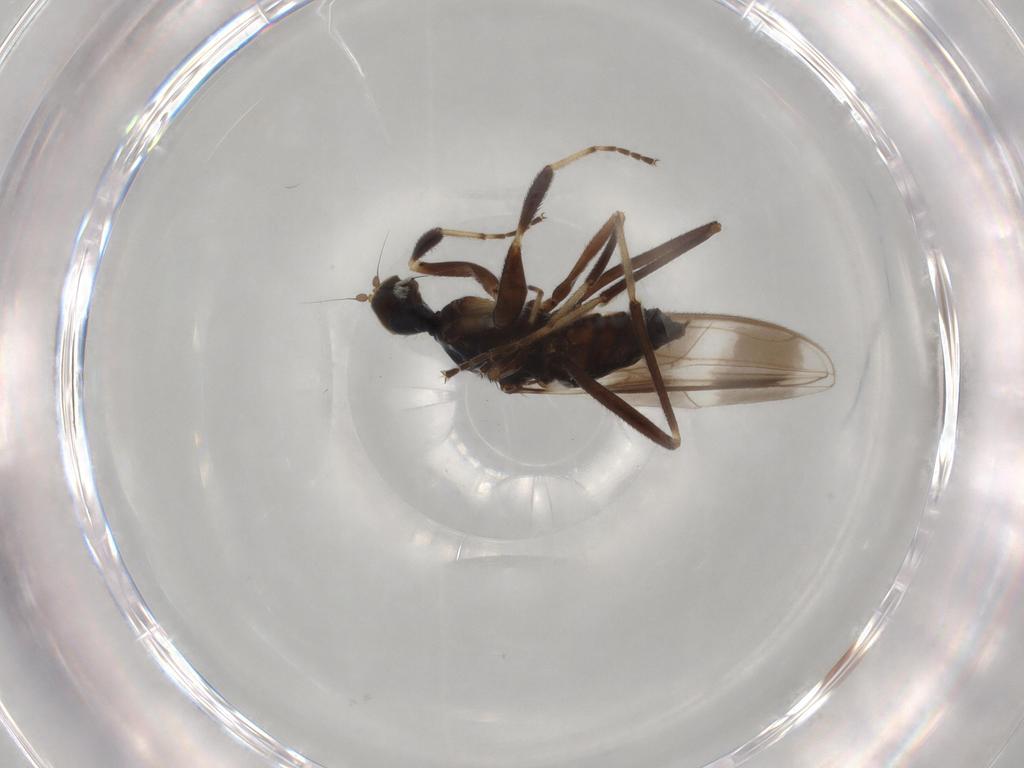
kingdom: Animalia
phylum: Arthropoda
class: Insecta
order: Diptera
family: Hybotidae
